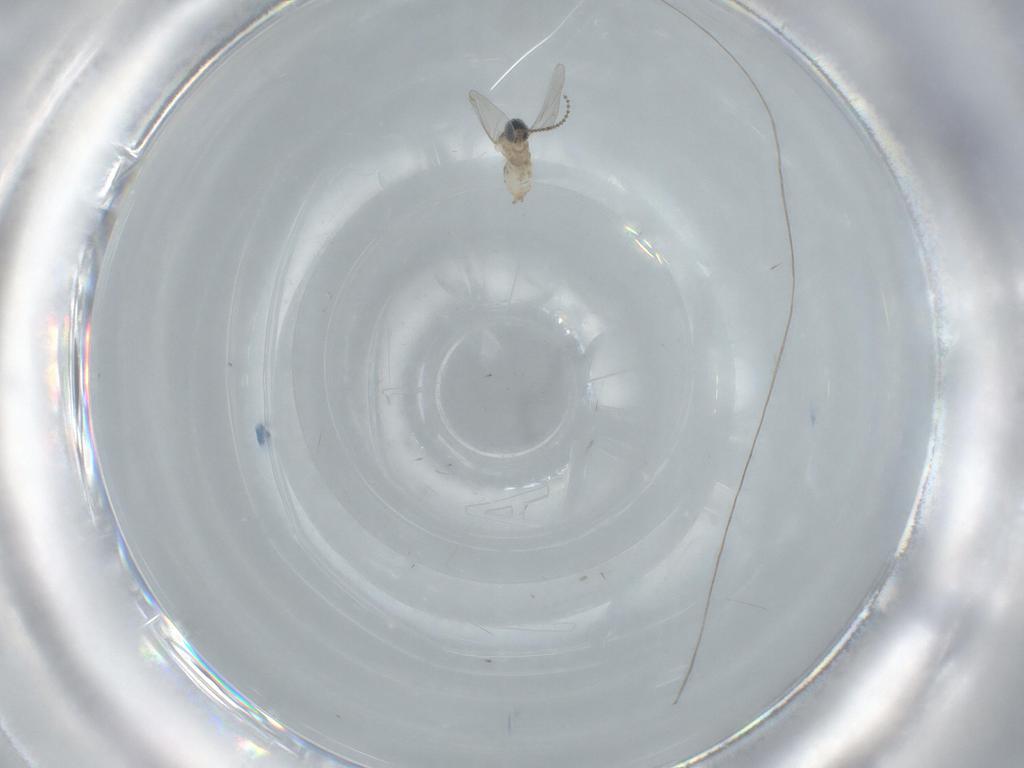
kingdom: Animalia
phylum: Arthropoda
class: Insecta
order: Diptera
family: Cecidomyiidae
